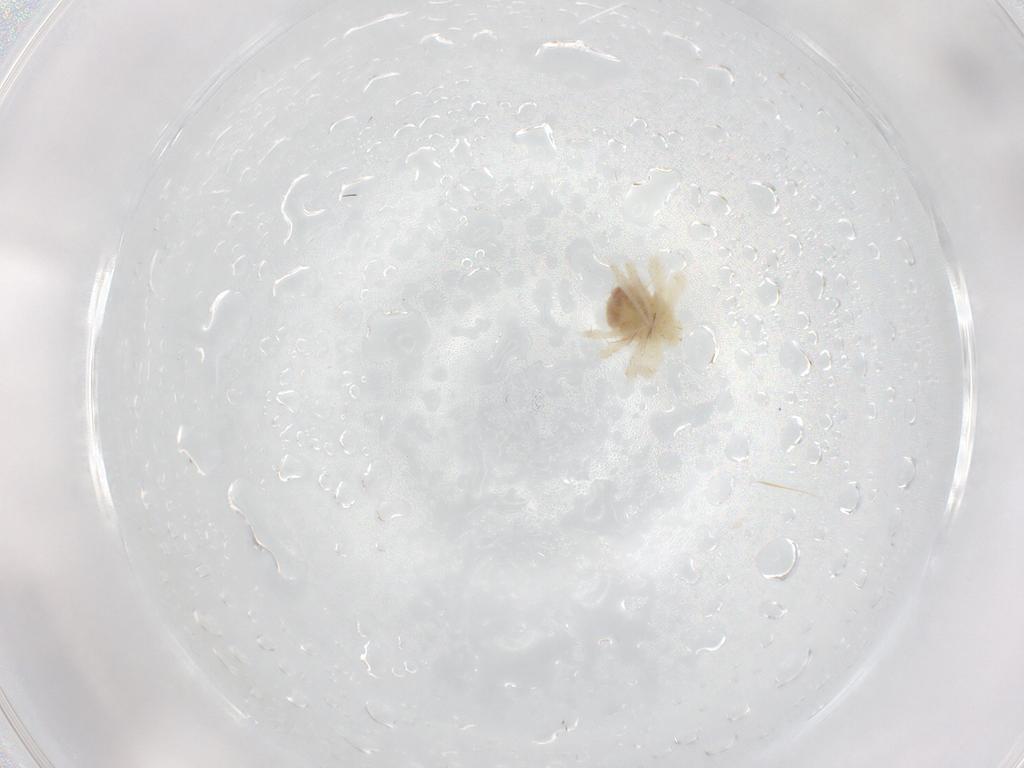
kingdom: Animalia
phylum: Arthropoda
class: Arachnida
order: Trombidiformes
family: Anystidae
